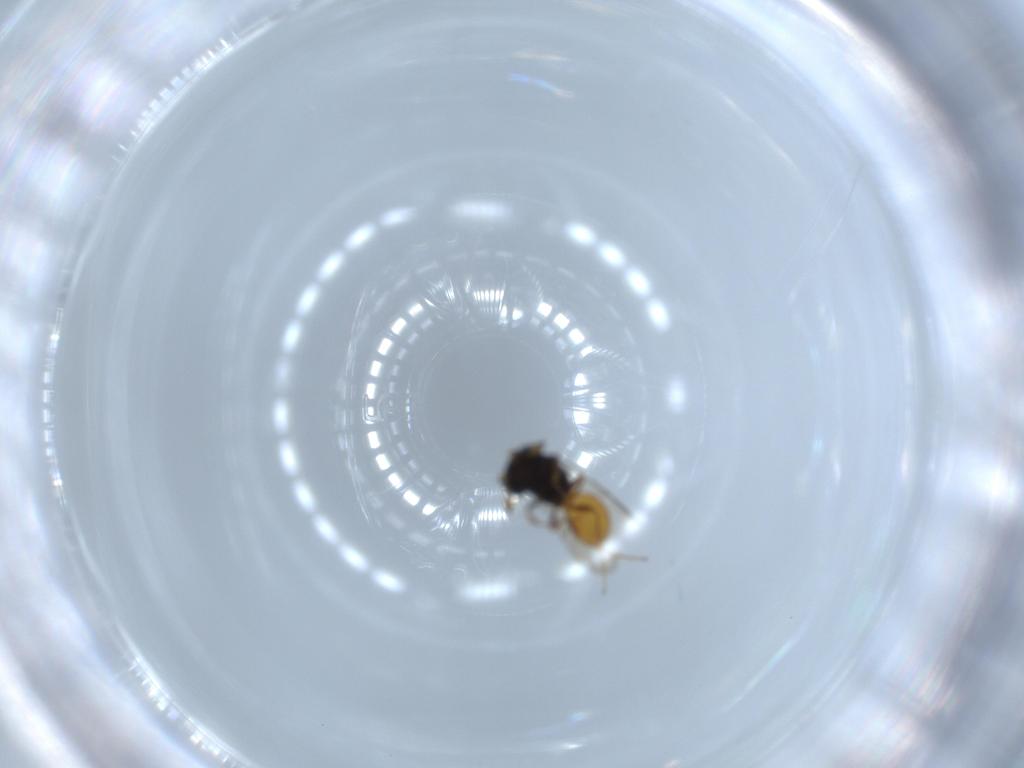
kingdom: Animalia
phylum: Arthropoda
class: Insecta
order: Hymenoptera
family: Scelionidae
